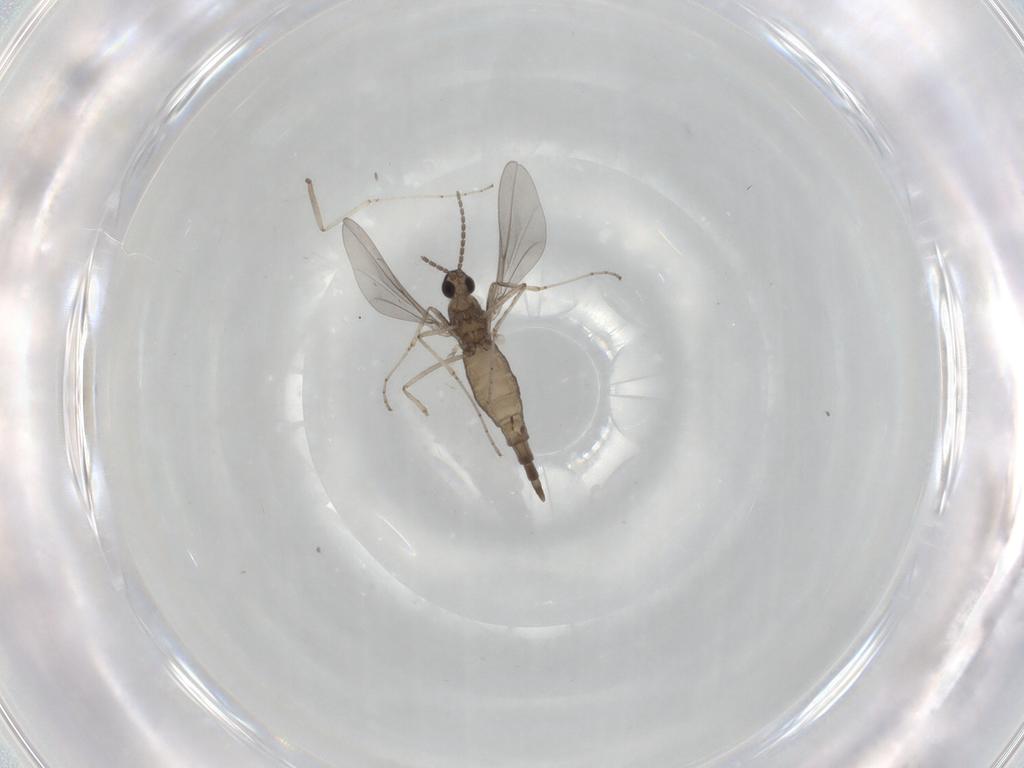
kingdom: Animalia
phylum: Arthropoda
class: Insecta
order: Diptera
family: Cecidomyiidae
